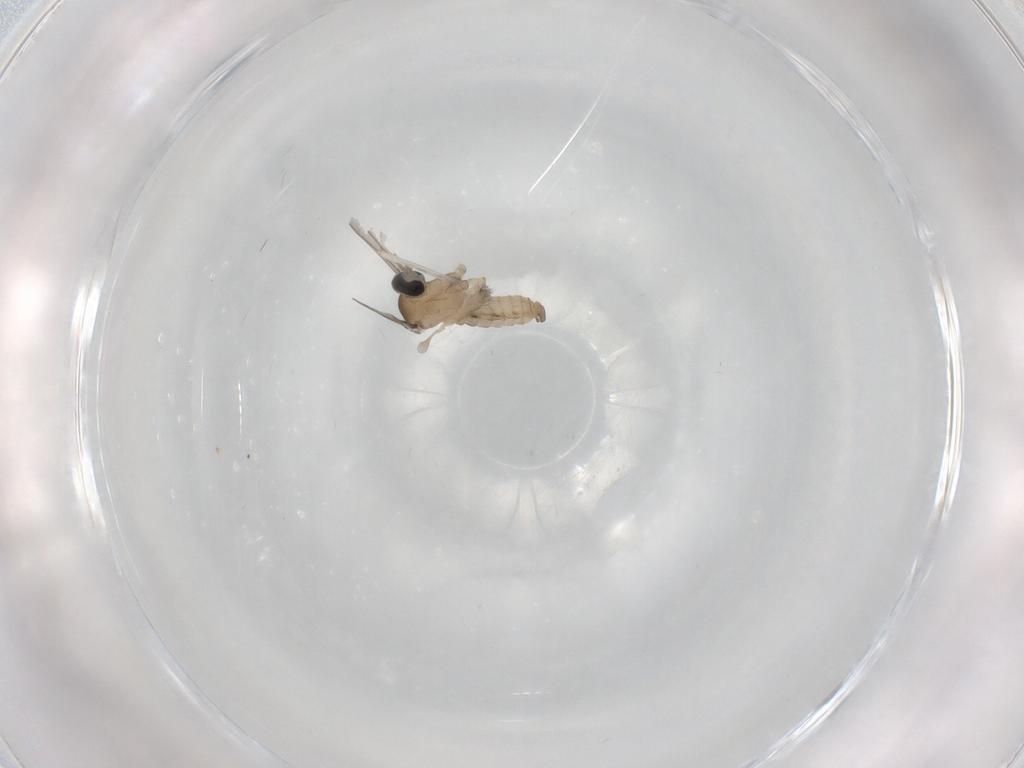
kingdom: Animalia
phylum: Arthropoda
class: Insecta
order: Diptera
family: Cecidomyiidae
